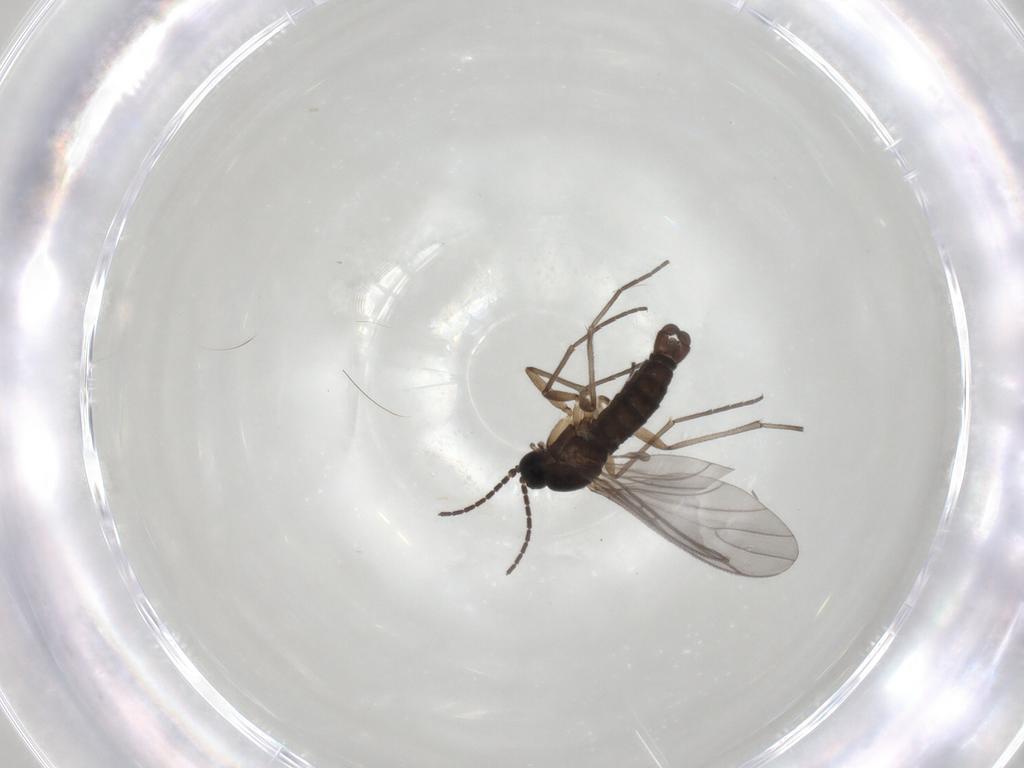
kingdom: Animalia
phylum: Arthropoda
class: Insecta
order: Diptera
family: Sciaridae
